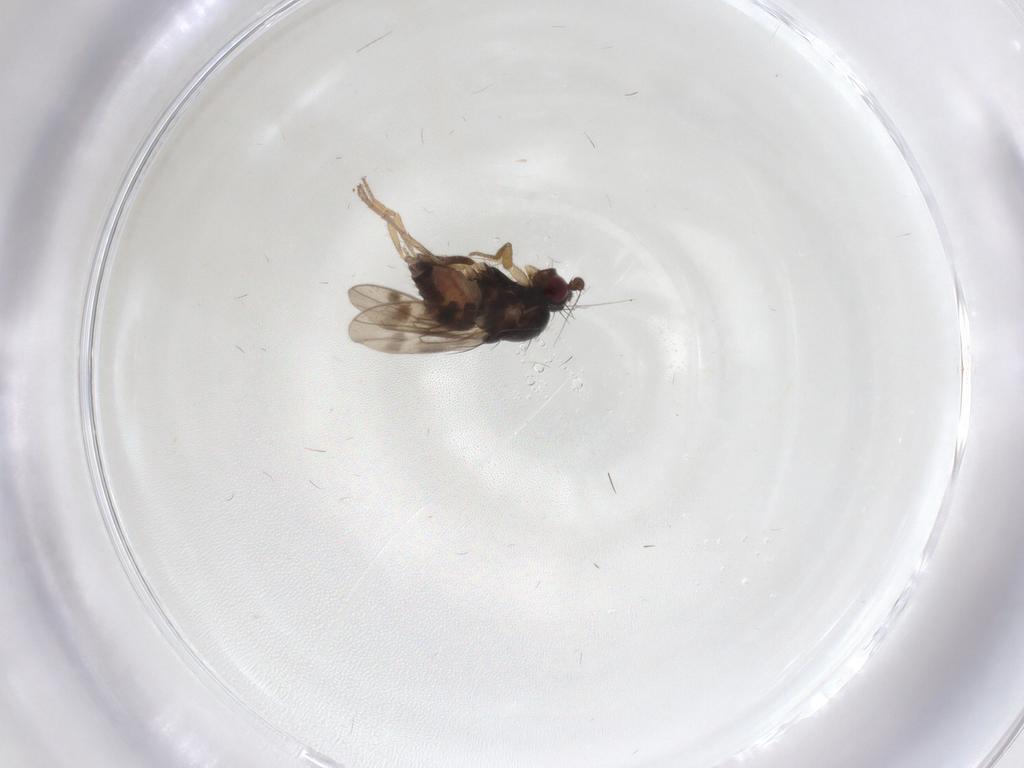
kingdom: Animalia
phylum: Arthropoda
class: Insecta
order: Diptera
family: Sphaeroceridae
